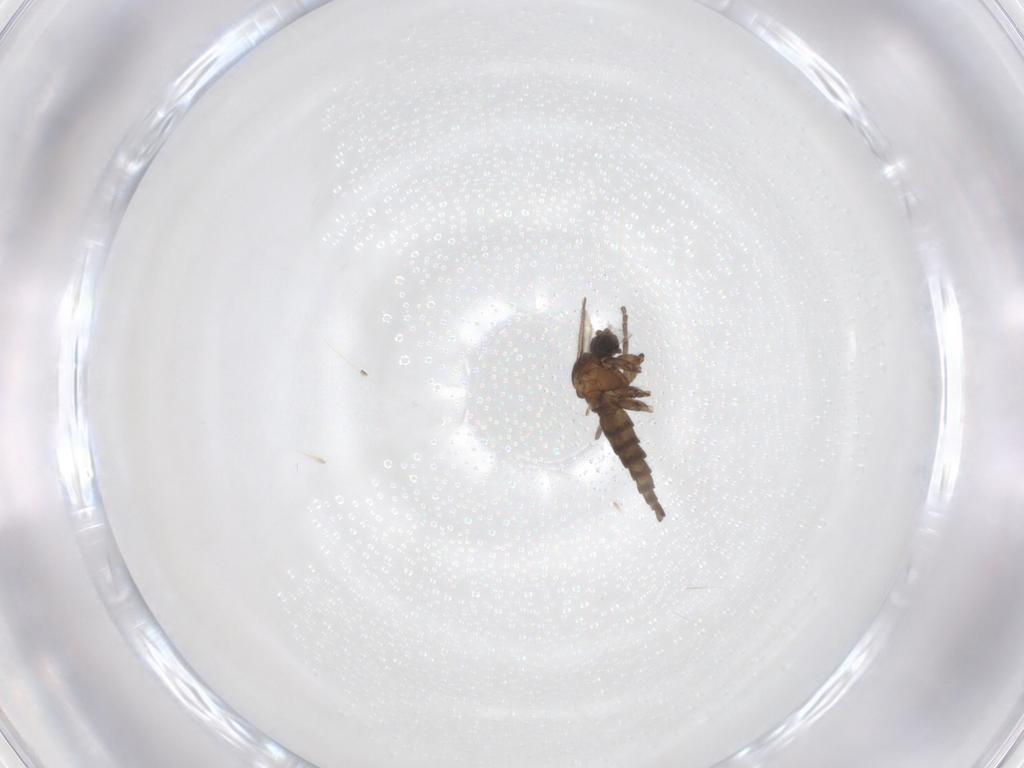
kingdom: Animalia
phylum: Arthropoda
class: Insecta
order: Diptera
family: Sciaridae
